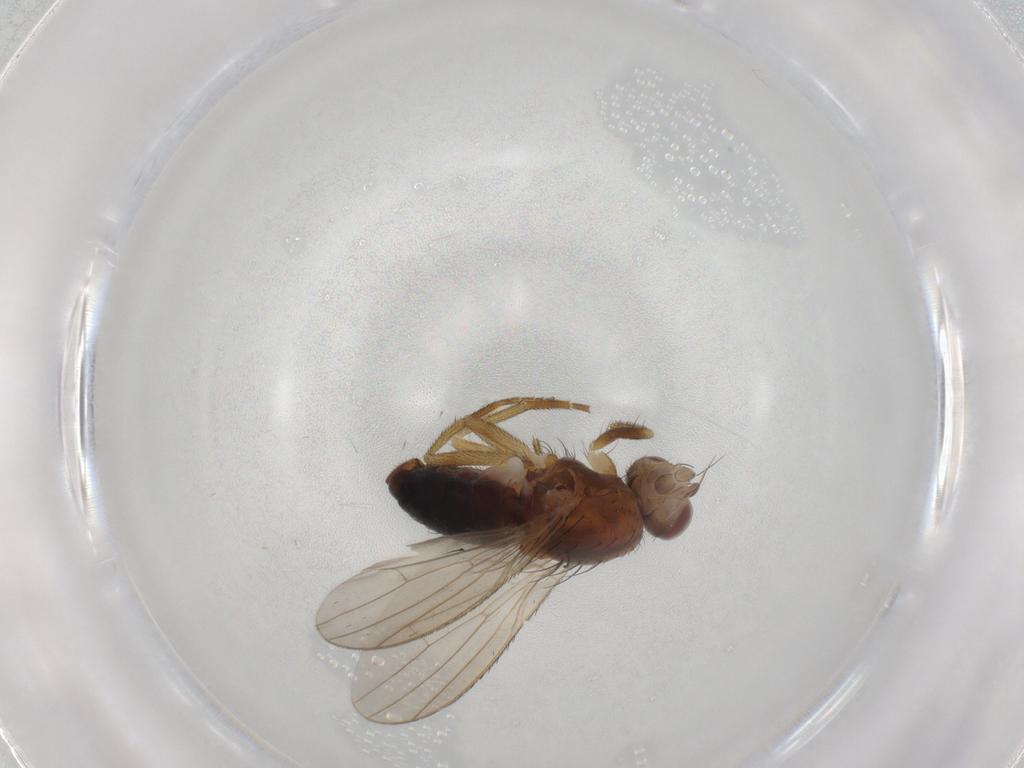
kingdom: Animalia
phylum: Arthropoda
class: Insecta
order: Diptera
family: Heleomyzidae
